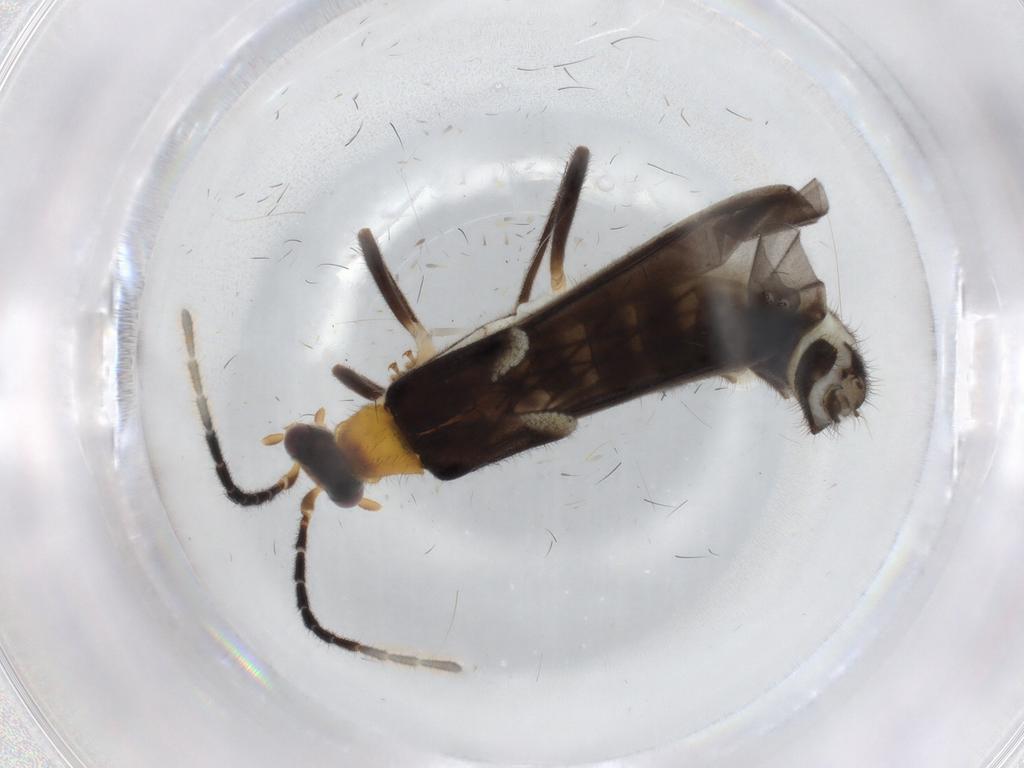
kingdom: Animalia
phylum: Arthropoda
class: Insecta
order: Coleoptera
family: Cantharidae
